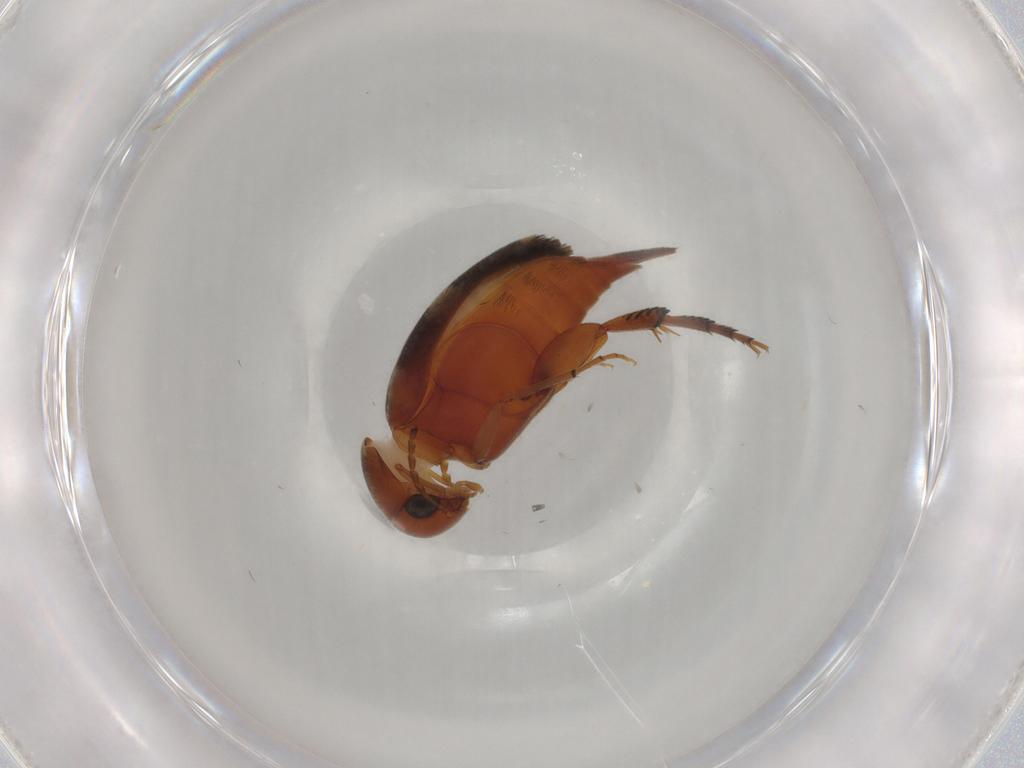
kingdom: Animalia
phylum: Arthropoda
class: Insecta
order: Coleoptera
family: Mordellidae
